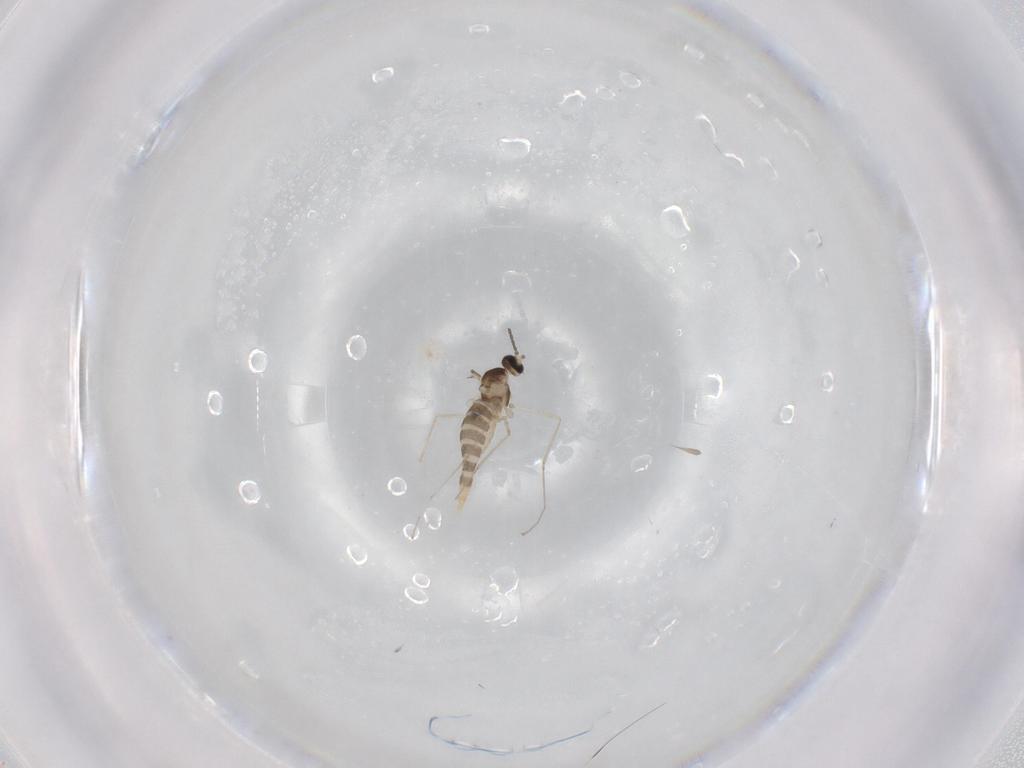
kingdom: Animalia
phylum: Arthropoda
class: Insecta
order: Diptera
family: Cecidomyiidae
